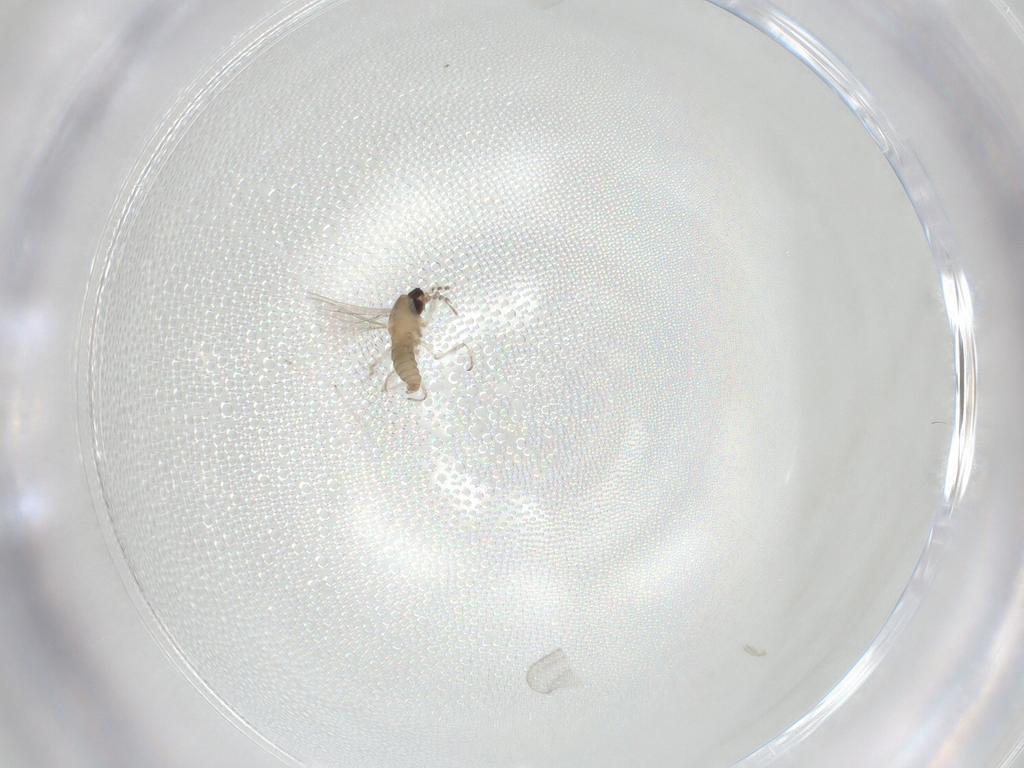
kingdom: Animalia
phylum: Arthropoda
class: Insecta
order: Diptera
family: Cecidomyiidae
